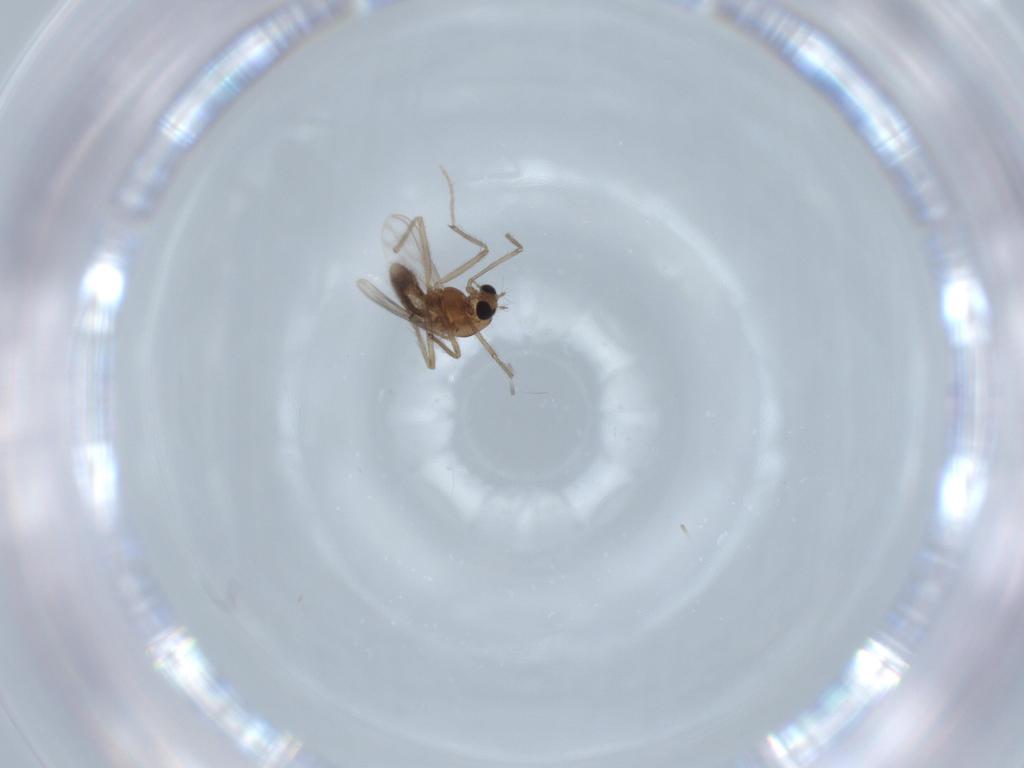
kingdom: Animalia
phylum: Arthropoda
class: Insecta
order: Diptera
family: Chironomidae
